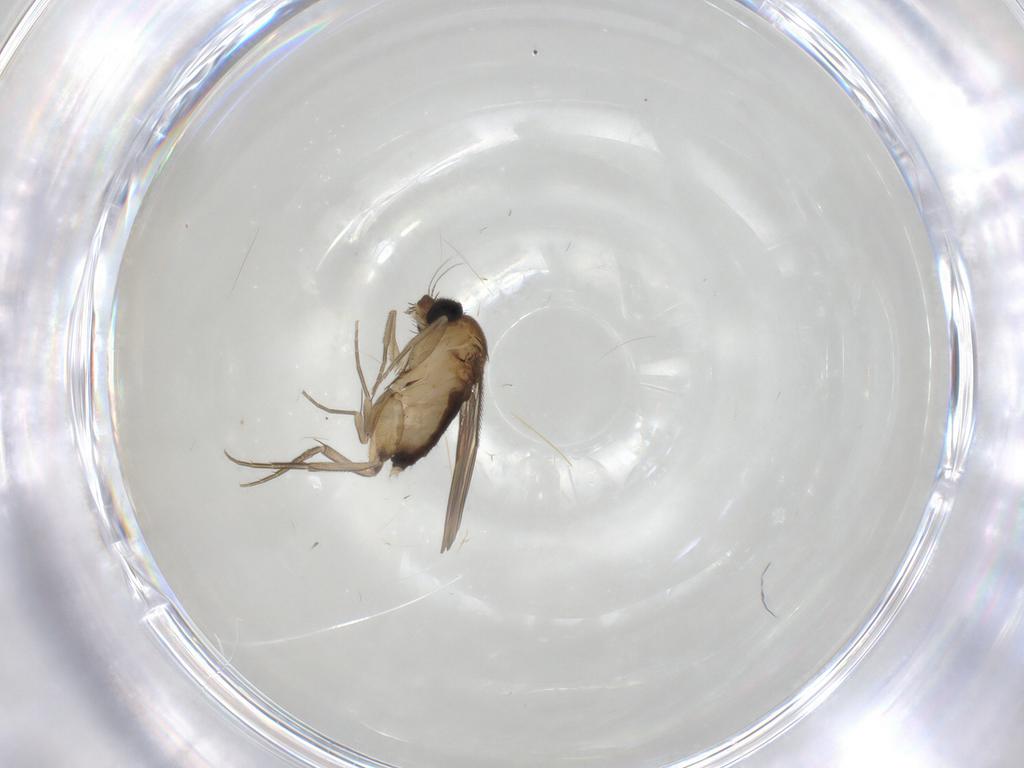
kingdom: Animalia
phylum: Arthropoda
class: Insecta
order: Diptera
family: Phoridae
